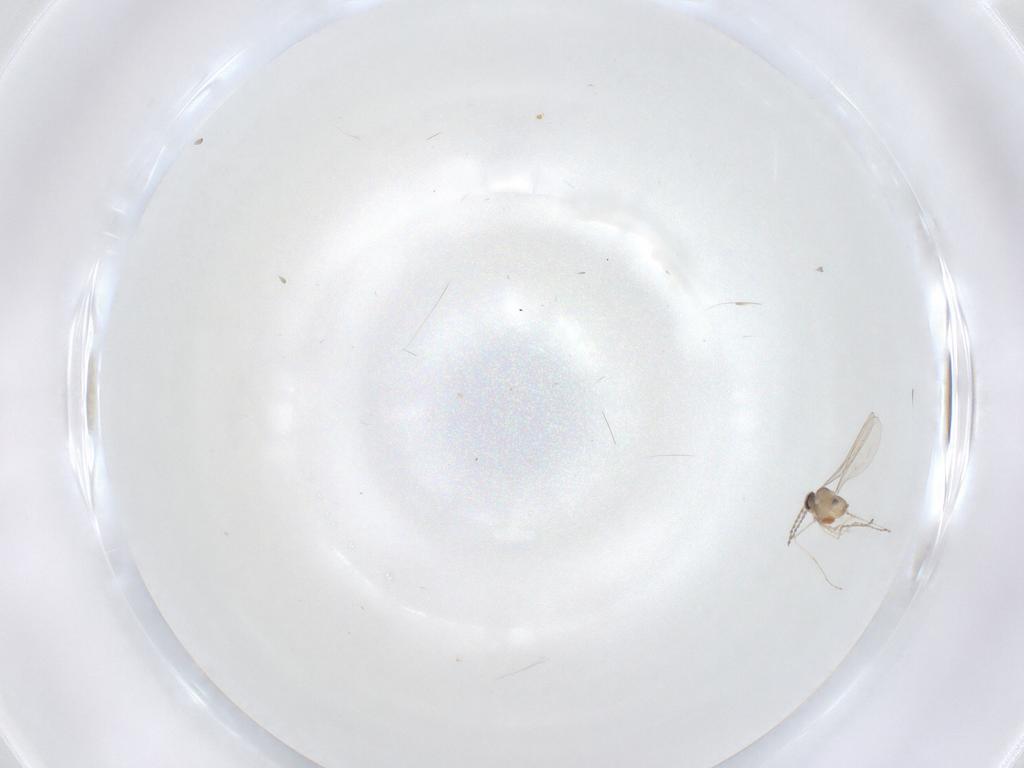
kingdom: Animalia
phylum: Arthropoda
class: Insecta
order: Diptera
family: Cecidomyiidae
